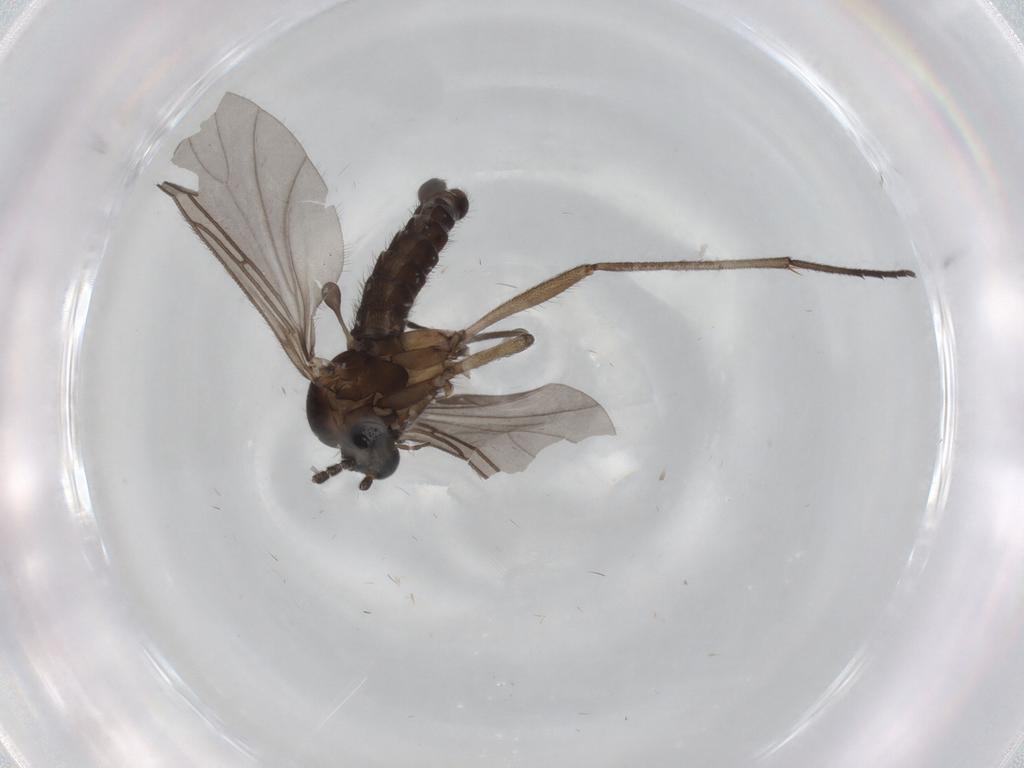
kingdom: Animalia
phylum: Arthropoda
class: Insecta
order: Diptera
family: Sciaridae
